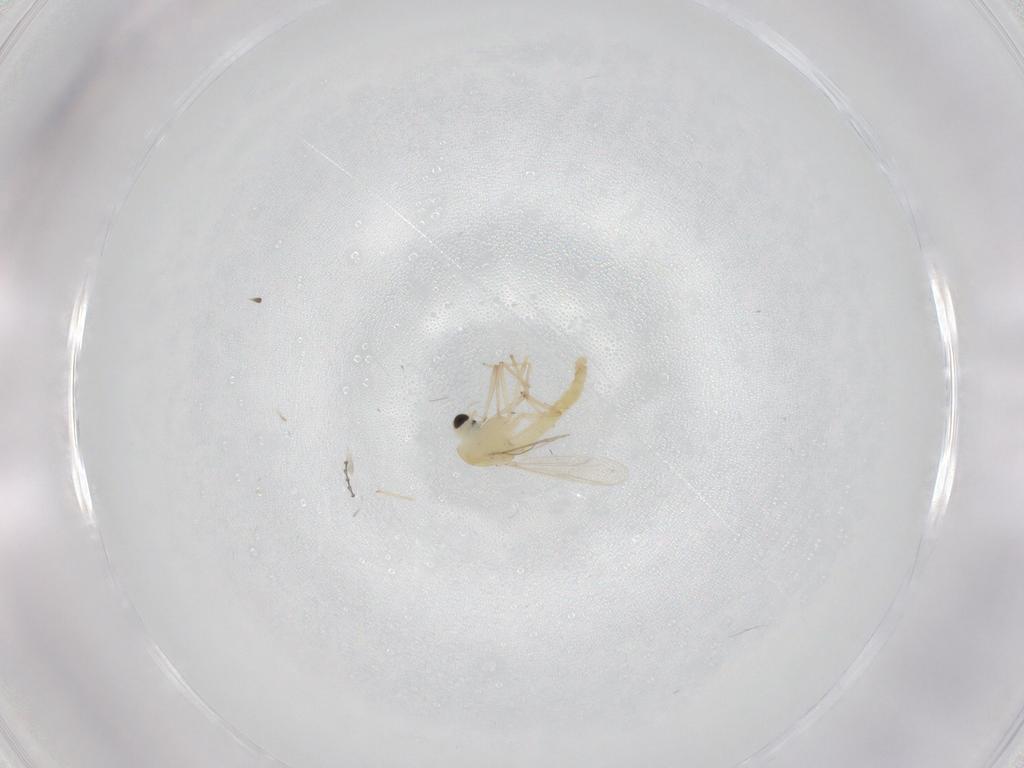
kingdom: Animalia
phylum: Arthropoda
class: Insecta
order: Diptera
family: Chironomidae
